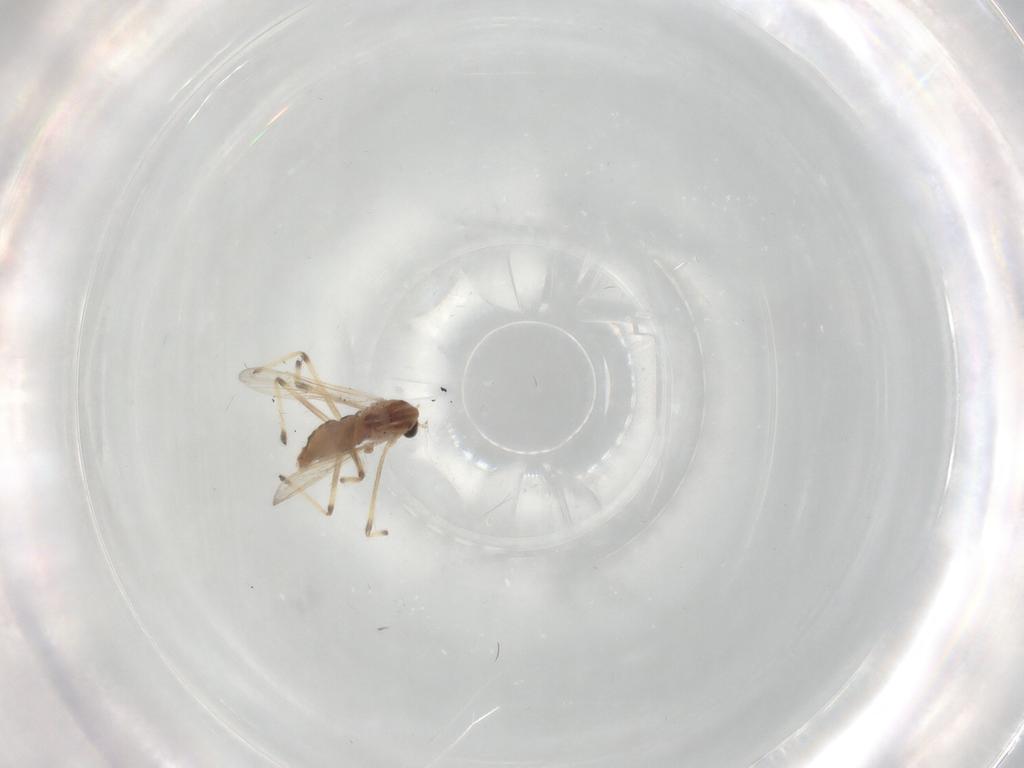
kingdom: Animalia
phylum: Arthropoda
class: Insecta
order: Diptera
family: Chironomidae
